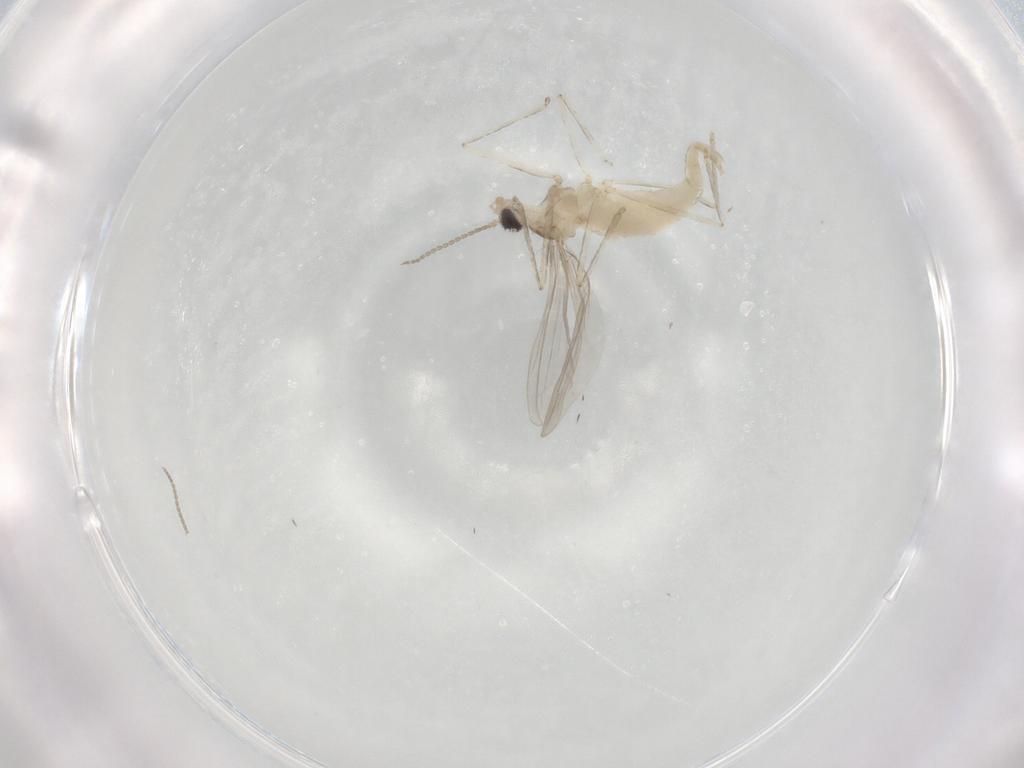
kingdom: Animalia
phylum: Arthropoda
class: Insecta
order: Diptera
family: Cecidomyiidae
